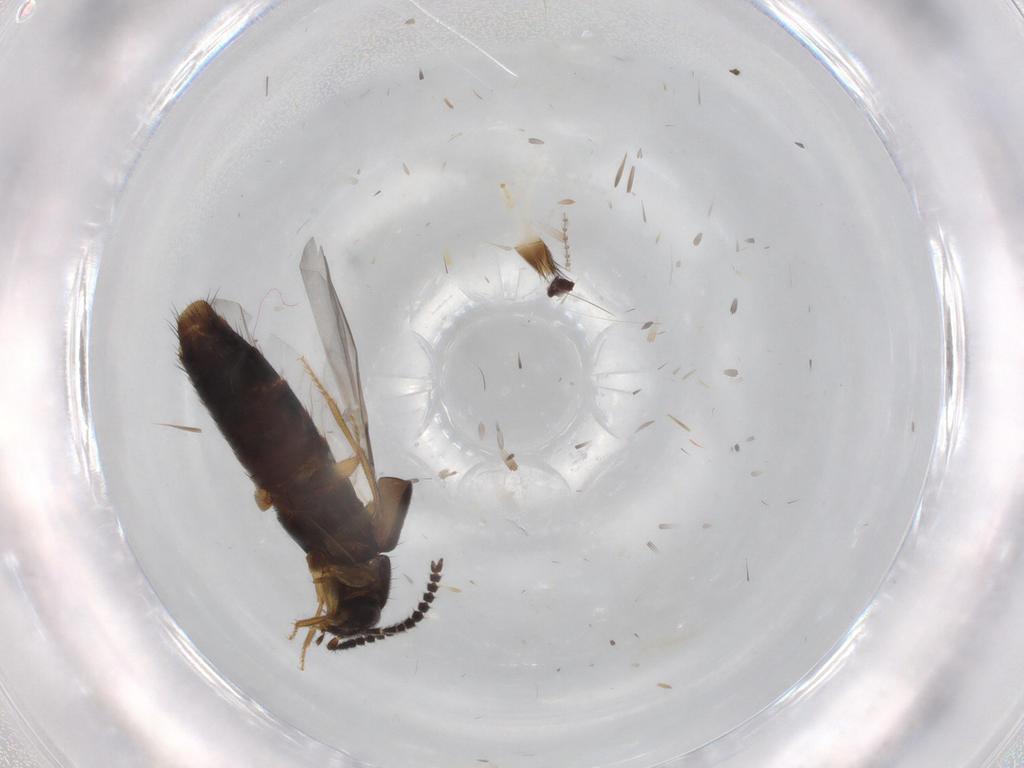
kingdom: Animalia
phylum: Arthropoda
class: Insecta
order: Coleoptera
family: Staphylinidae
